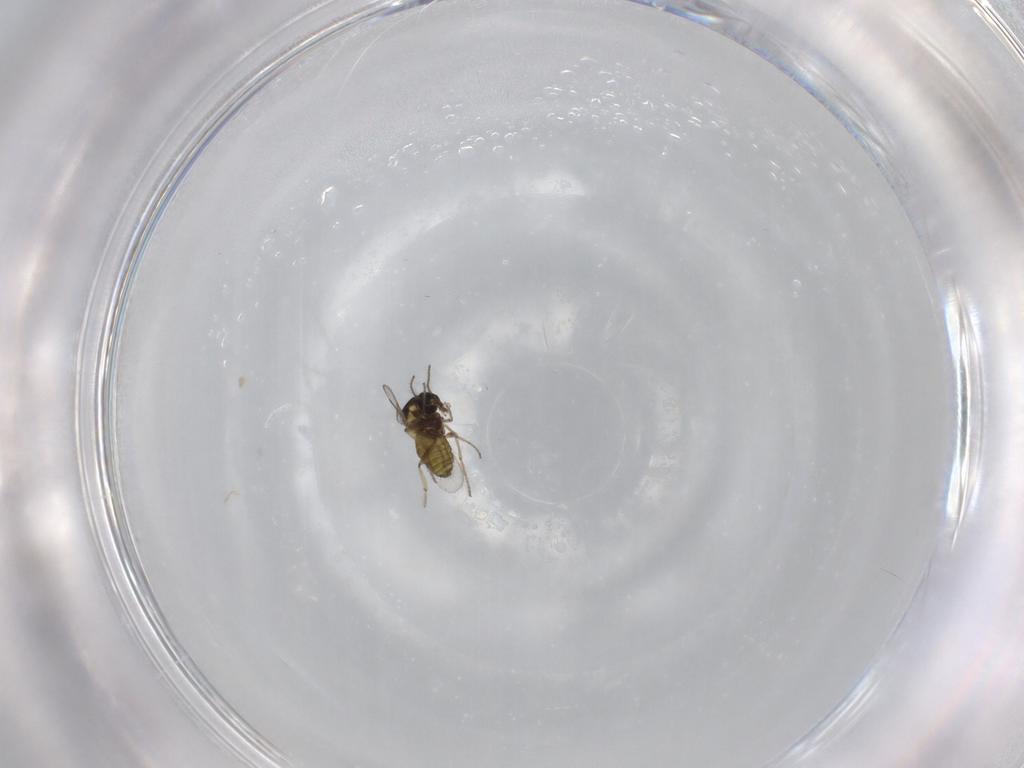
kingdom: Animalia
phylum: Arthropoda
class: Insecta
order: Diptera
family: Ceratopogonidae
